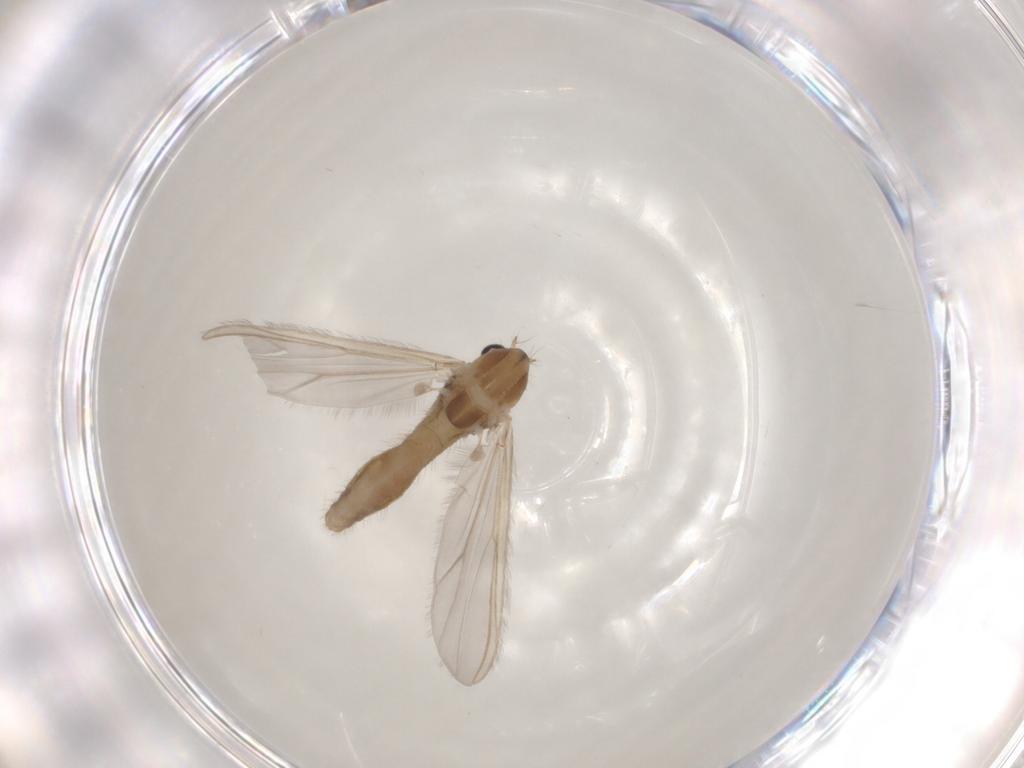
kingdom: Animalia
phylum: Arthropoda
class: Insecta
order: Diptera
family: Chironomidae
